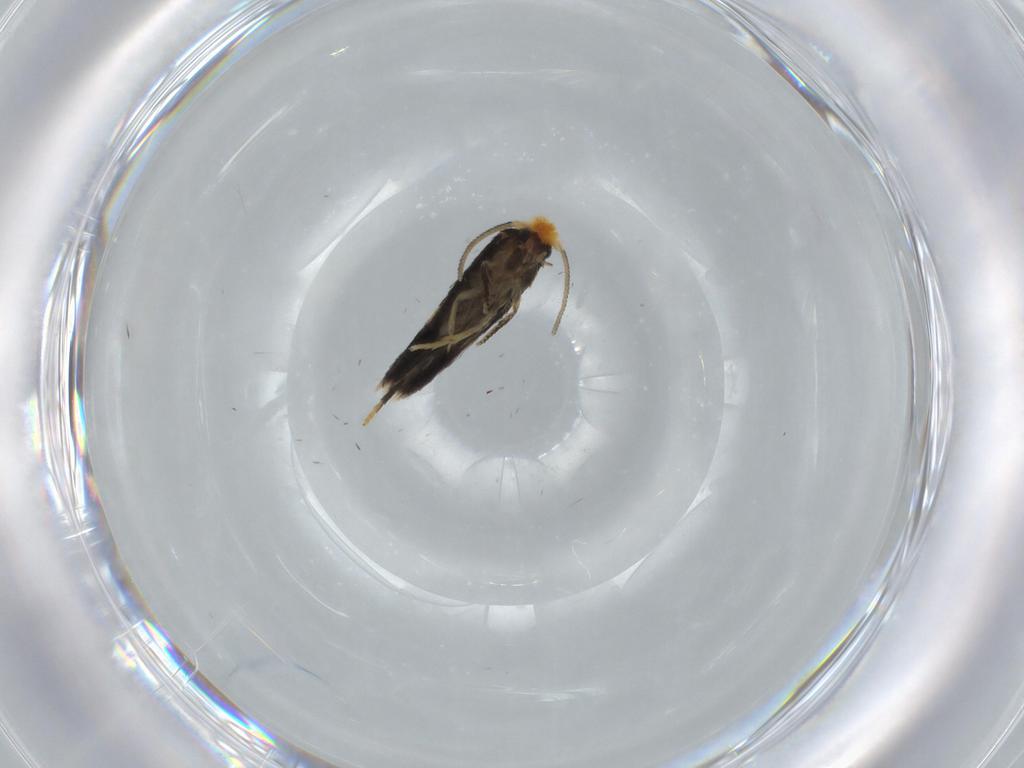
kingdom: Animalia
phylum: Arthropoda
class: Insecta
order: Lepidoptera
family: Nepticulidae
